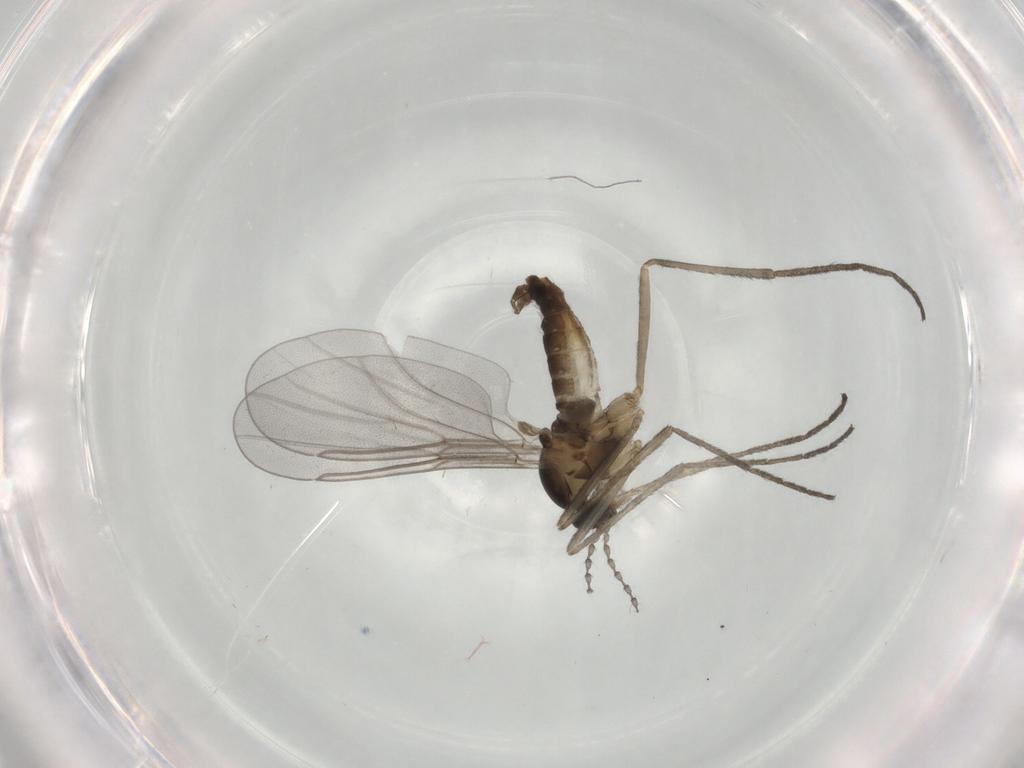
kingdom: Animalia
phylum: Arthropoda
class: Insecta
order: Diptera
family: Cecidomyiidae
